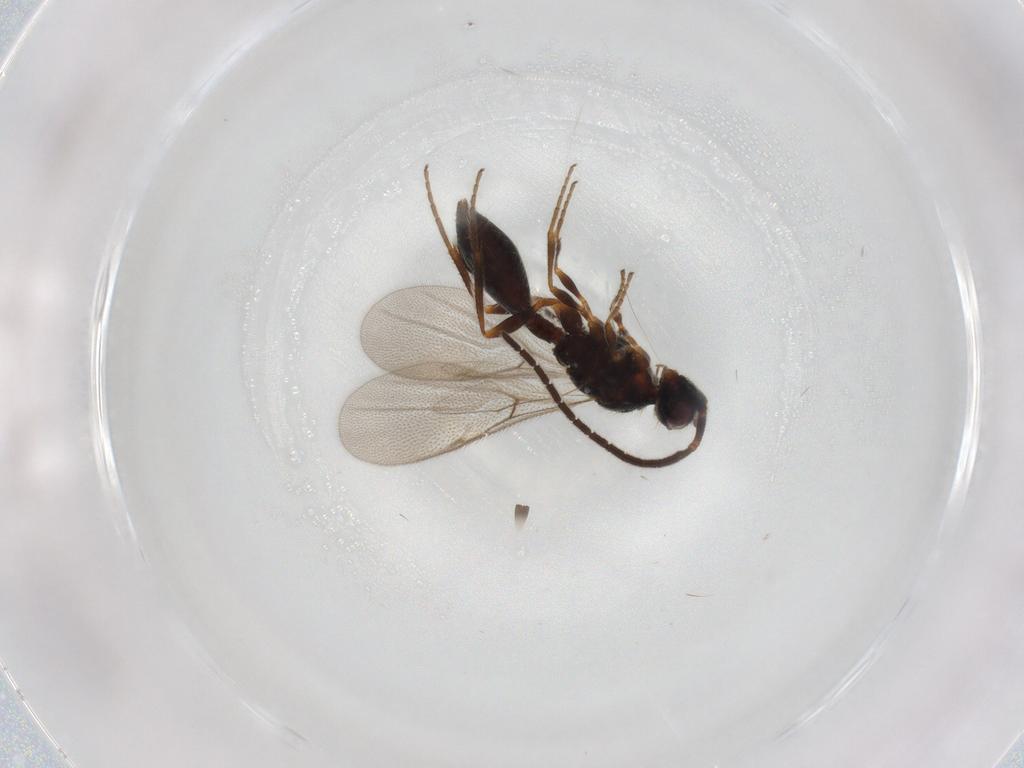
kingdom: Animalia
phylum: Arthropoda
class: Insecta
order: Hymenoptera
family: Diapriidae
